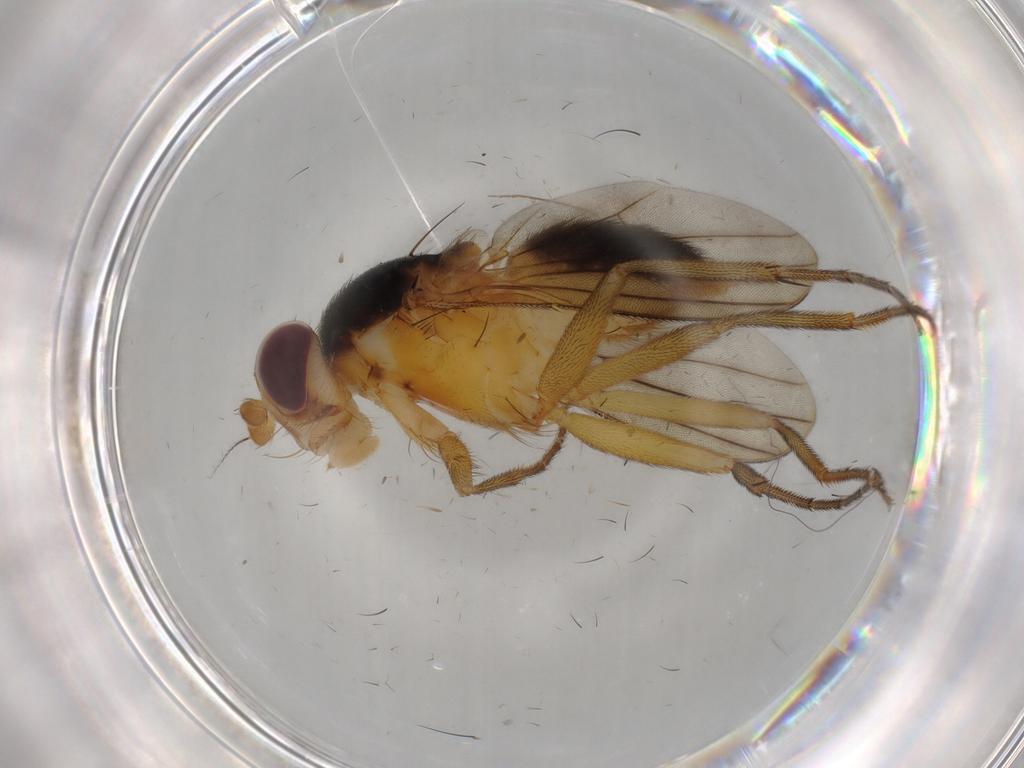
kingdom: Animalia
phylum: Arthropoda
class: Insecta
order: Diptera
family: Clusiidae
